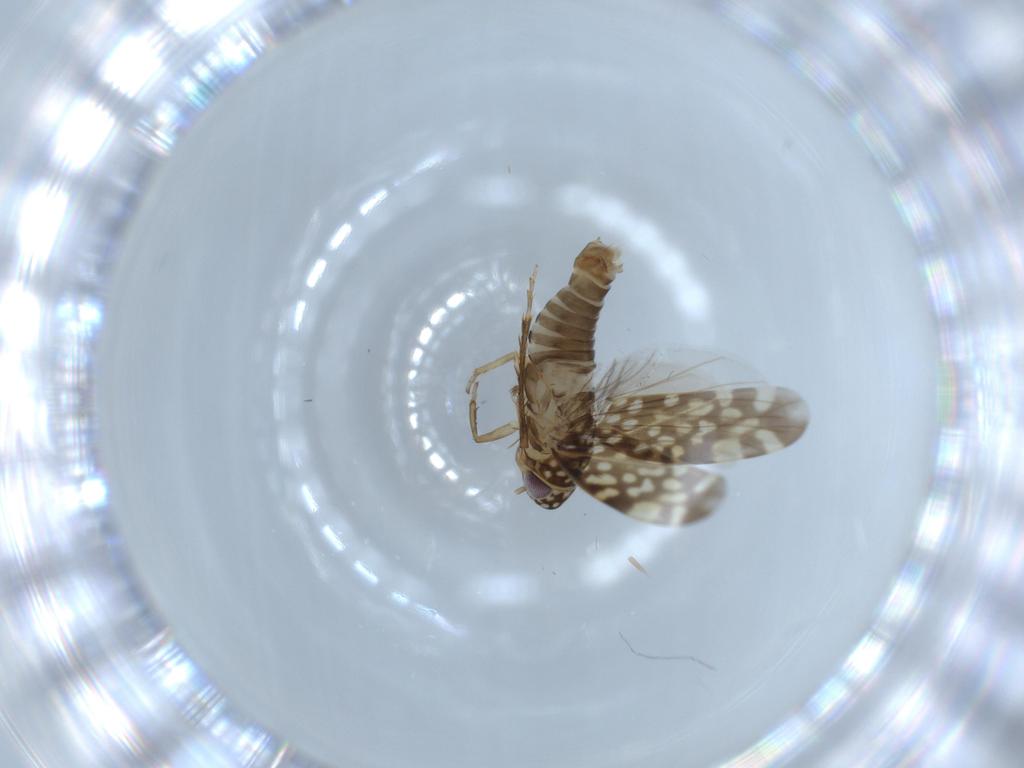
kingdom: Animalia
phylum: Arthropoda
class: Insecta
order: Hemiptera
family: Cicadellidae
